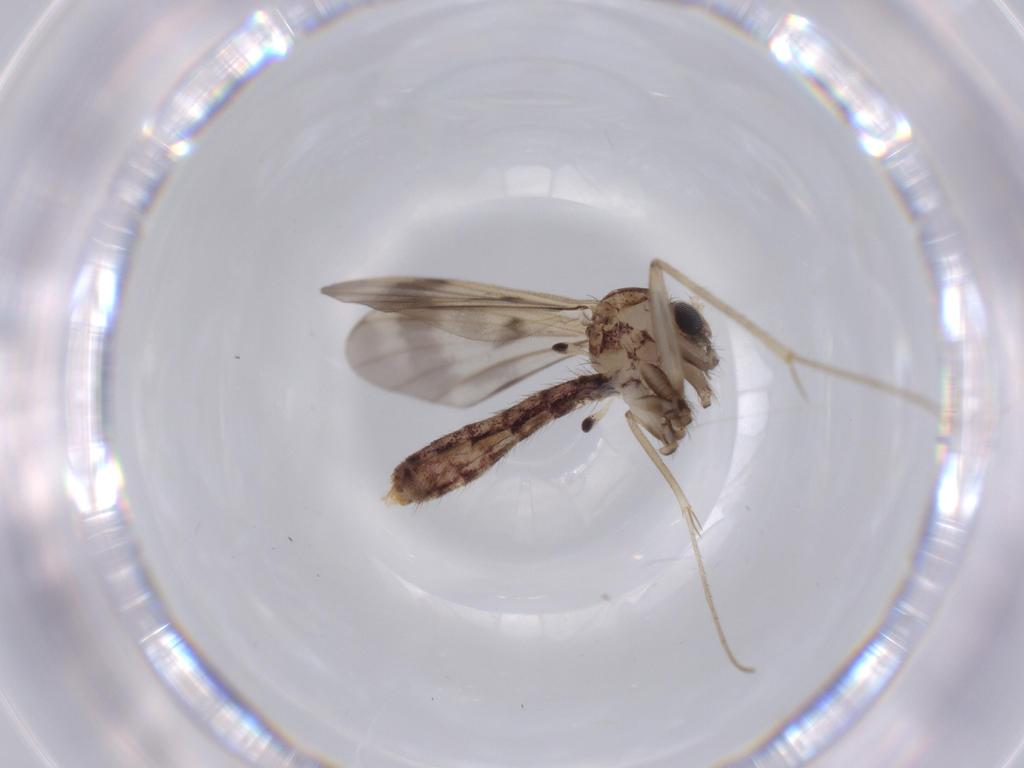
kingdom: Animalia
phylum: Arthropoda
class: Insecta
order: Diptera
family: Mycetophilidae
